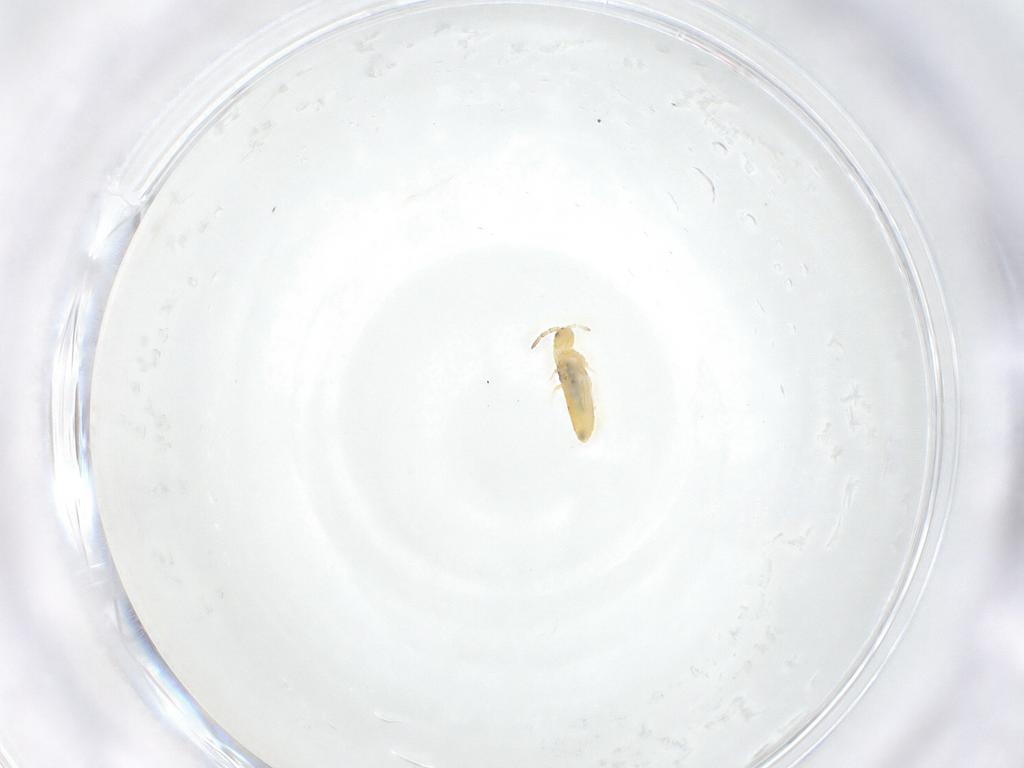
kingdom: Animalia
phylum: Arthropoda
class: Collembola
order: Entomobryomorpha
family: Entomobryidae
